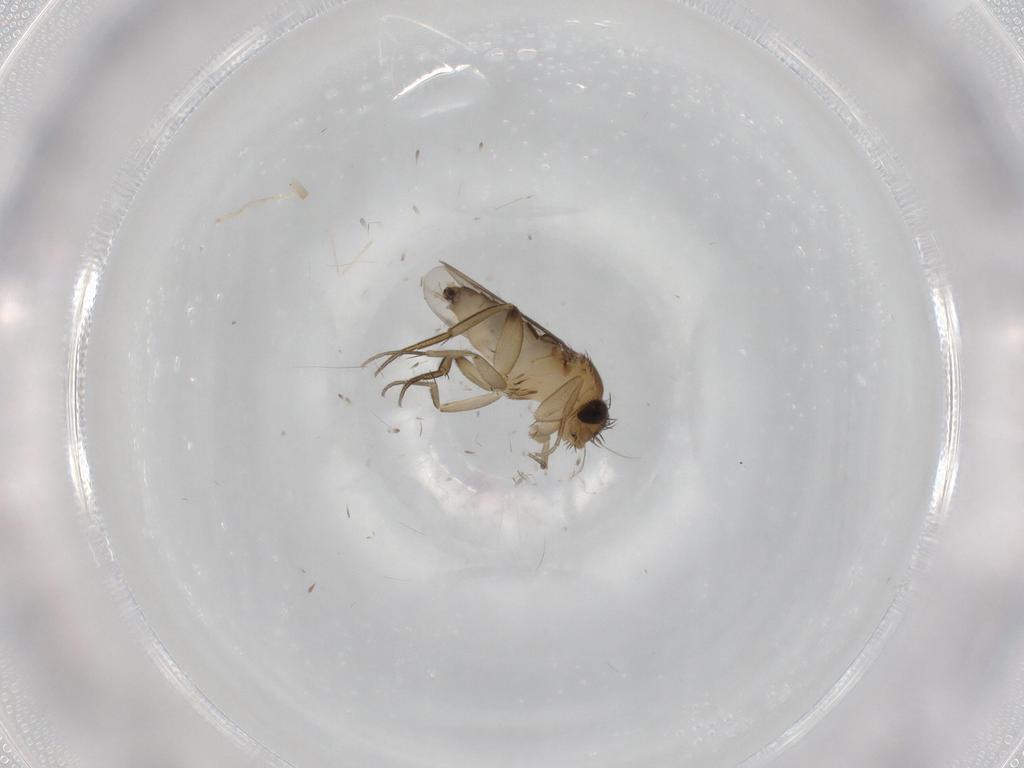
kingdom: Animalia
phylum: Arthropoda
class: Insecta
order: Diptera
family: Phoridae
